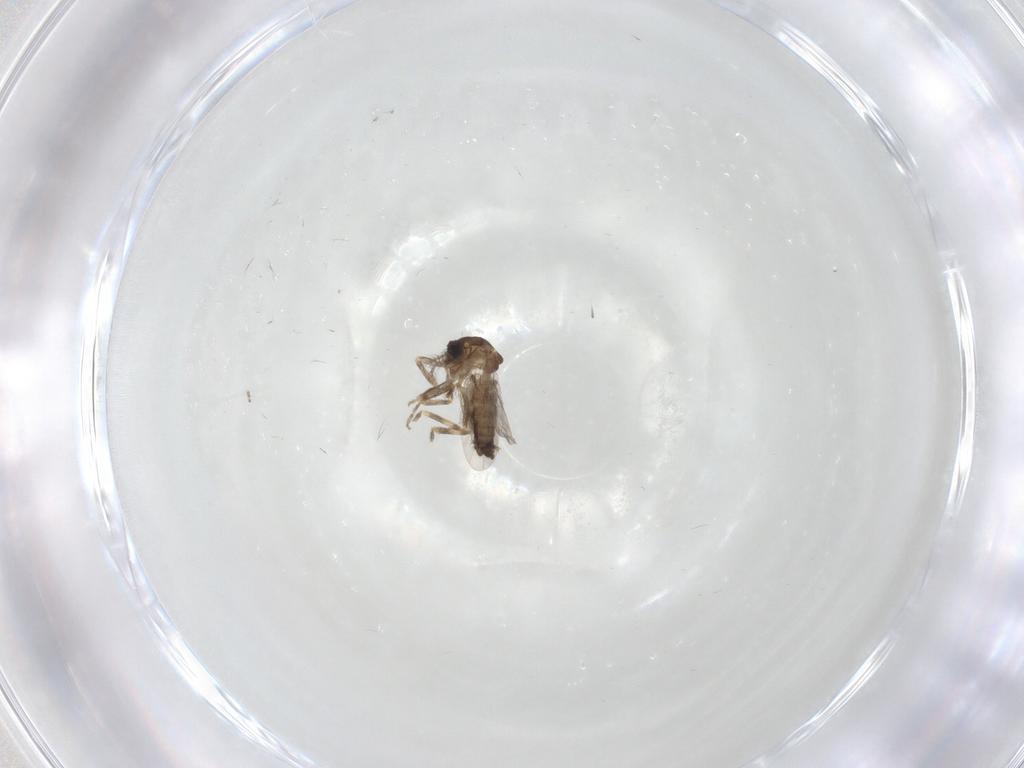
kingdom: Animalia
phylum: Arthropoda
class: Insecta
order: Diptera
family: Ceratopogonidae
